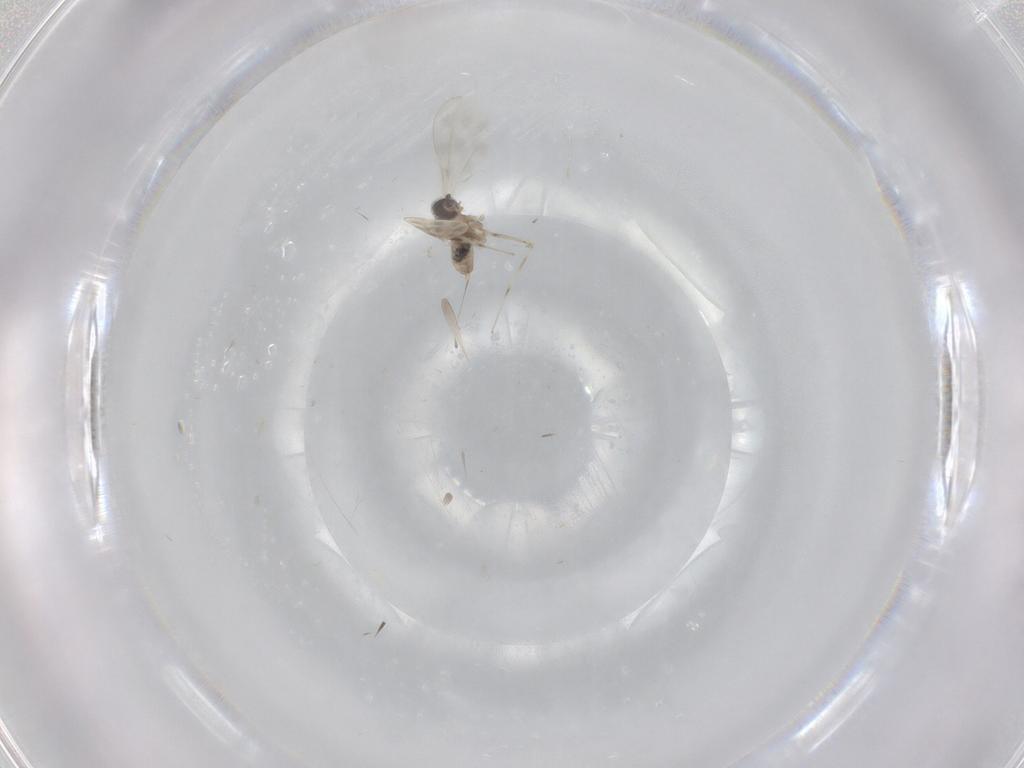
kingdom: Animalia
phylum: Arthropoda
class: Insecta
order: Diptera
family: Cecidomyiidae
